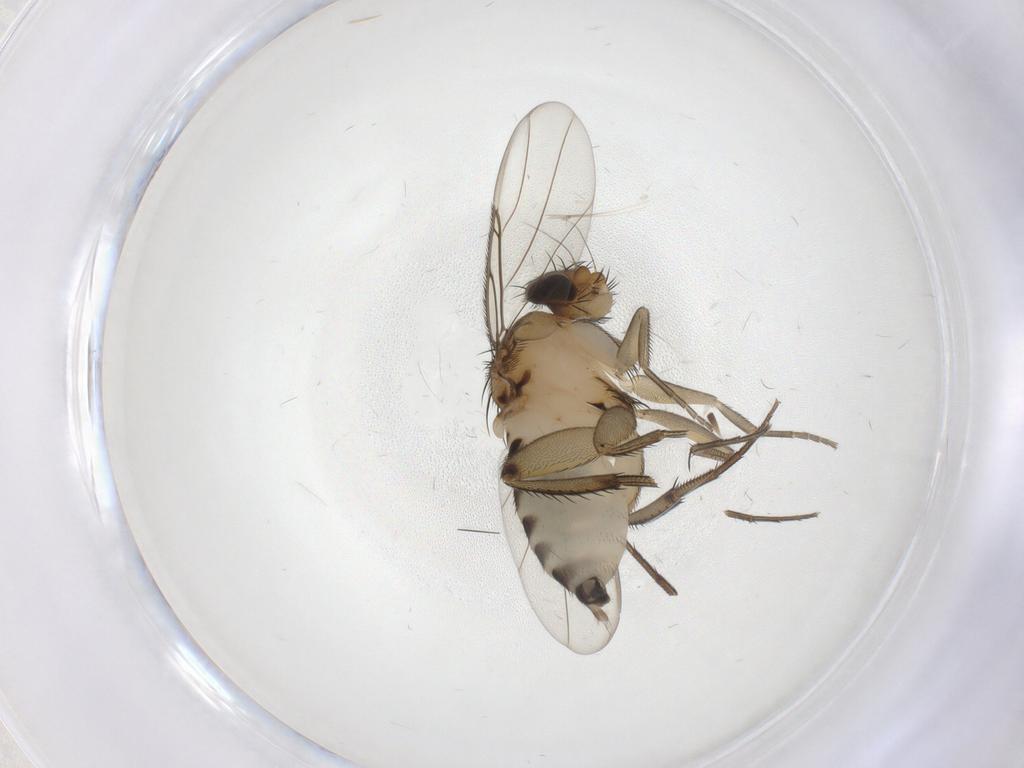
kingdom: Animalia
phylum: Arthropoda
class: Insecta
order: Diptera
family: Phoridae
